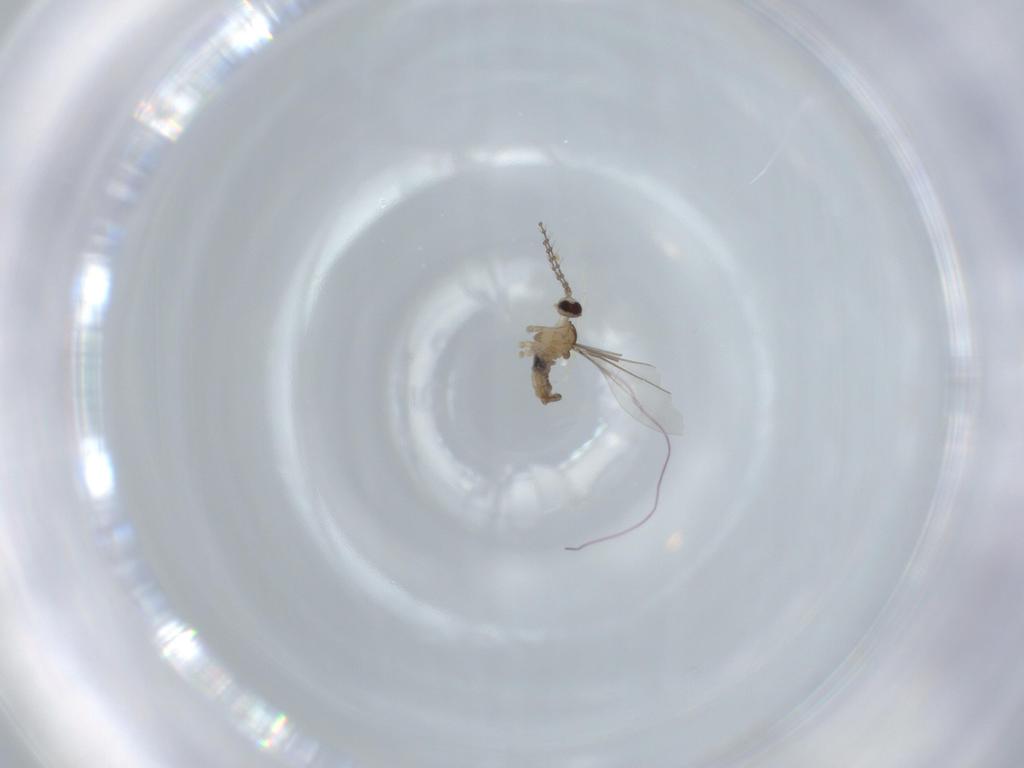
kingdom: Animalia
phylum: Arthropoda
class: Insecta
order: Diptera
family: Cecidomyiidae
